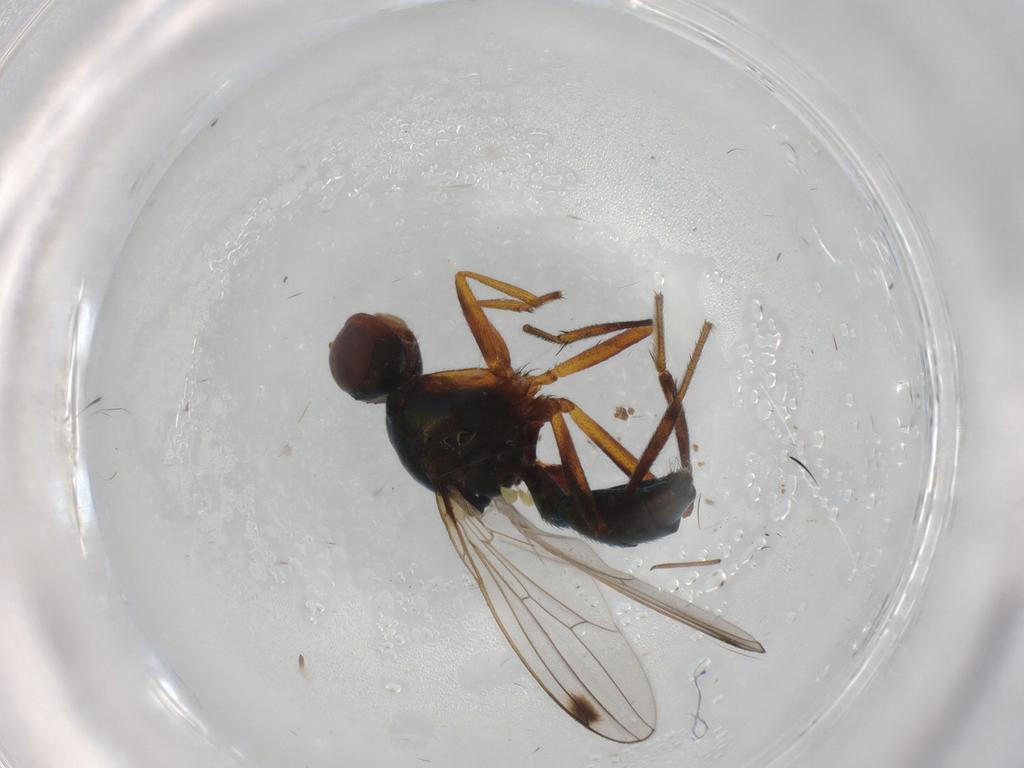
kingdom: Animalia
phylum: Arthropoda
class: Insecta
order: Diptera
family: Sepsidae
